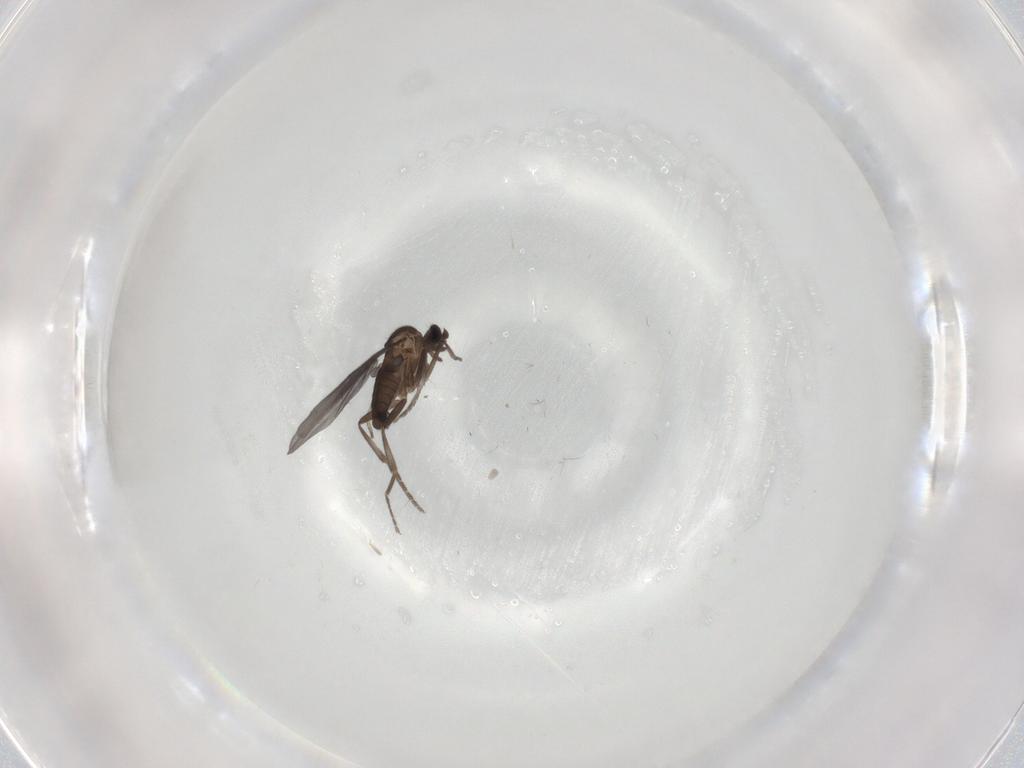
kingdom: Animalia
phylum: Arthropoda
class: Insecta
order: Diptera
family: Phoridae
